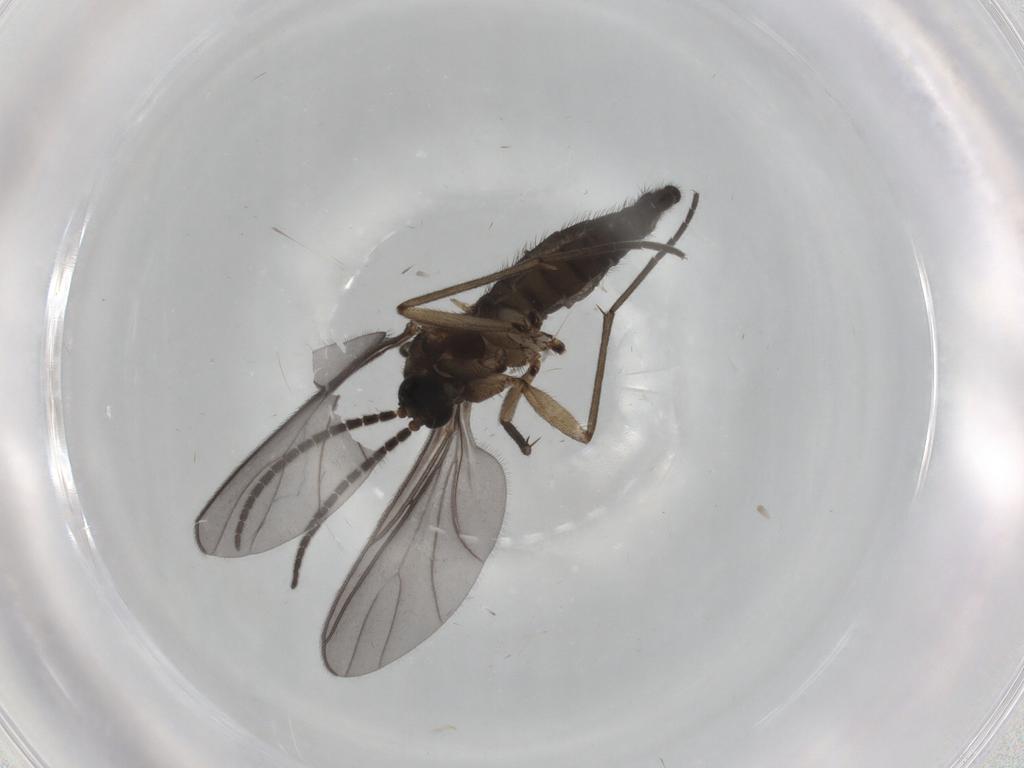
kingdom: Animalia
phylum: Arthropoda
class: Insecta
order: Diptera
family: Sciaridae
